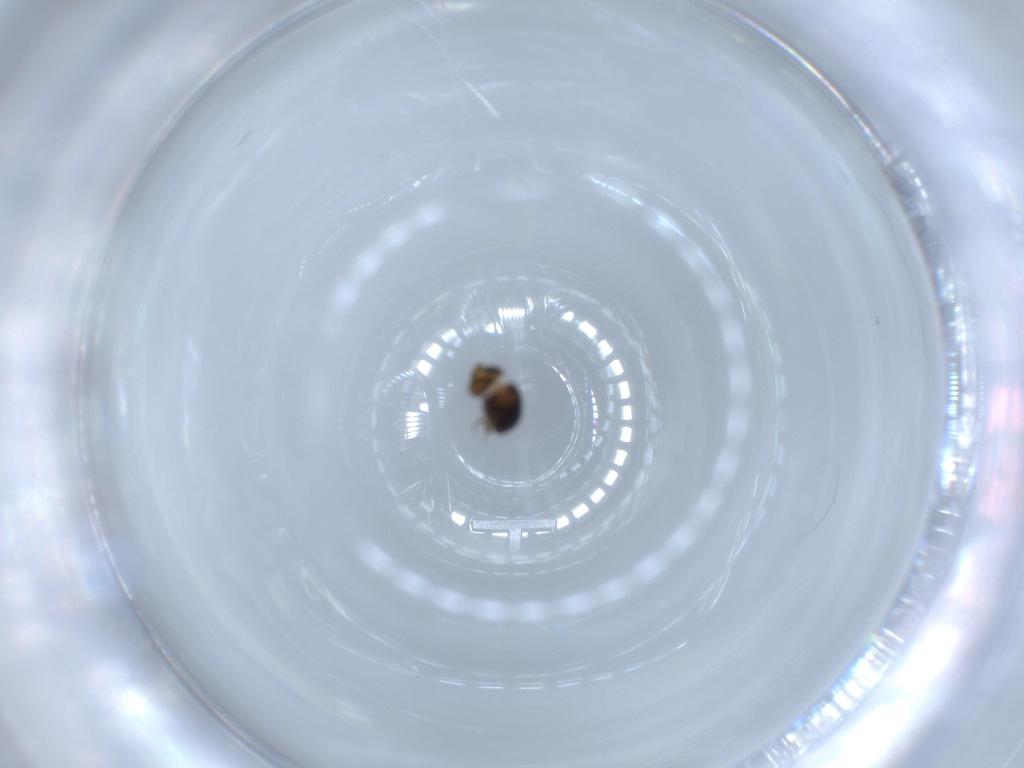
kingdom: Animalia
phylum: Arthropoda
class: Insecta
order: Hymenoptera
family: Scelionidae
